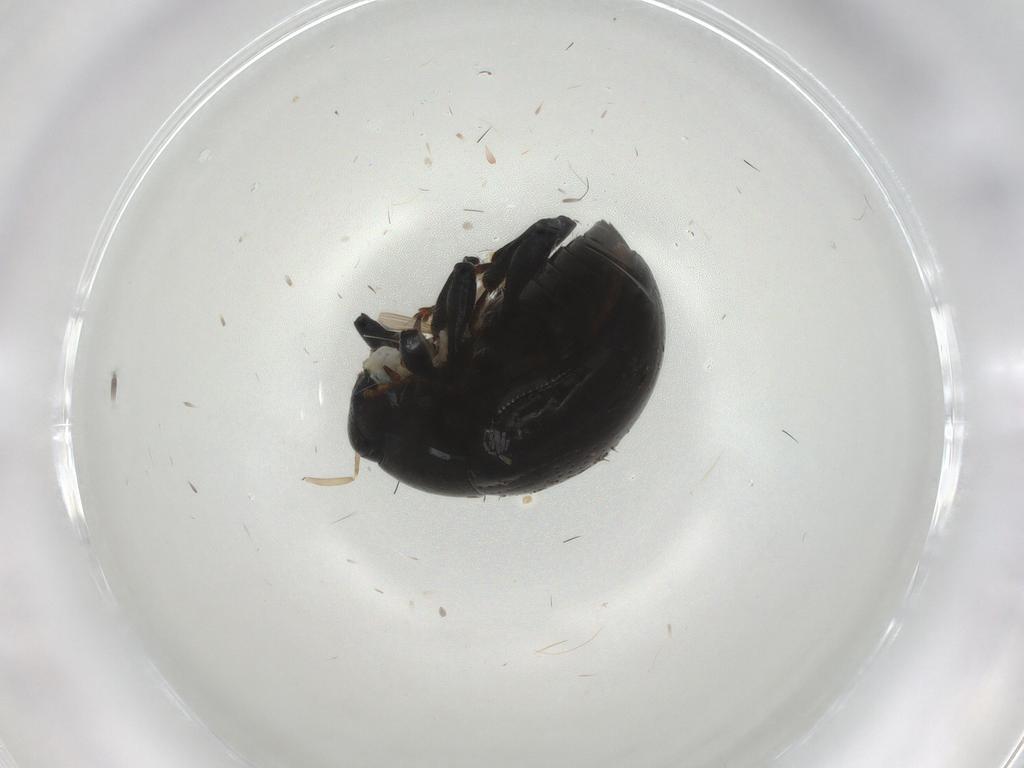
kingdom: Animalia
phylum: Arthropoda
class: Insecta
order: Coleoptera
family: Chrysomelidae
